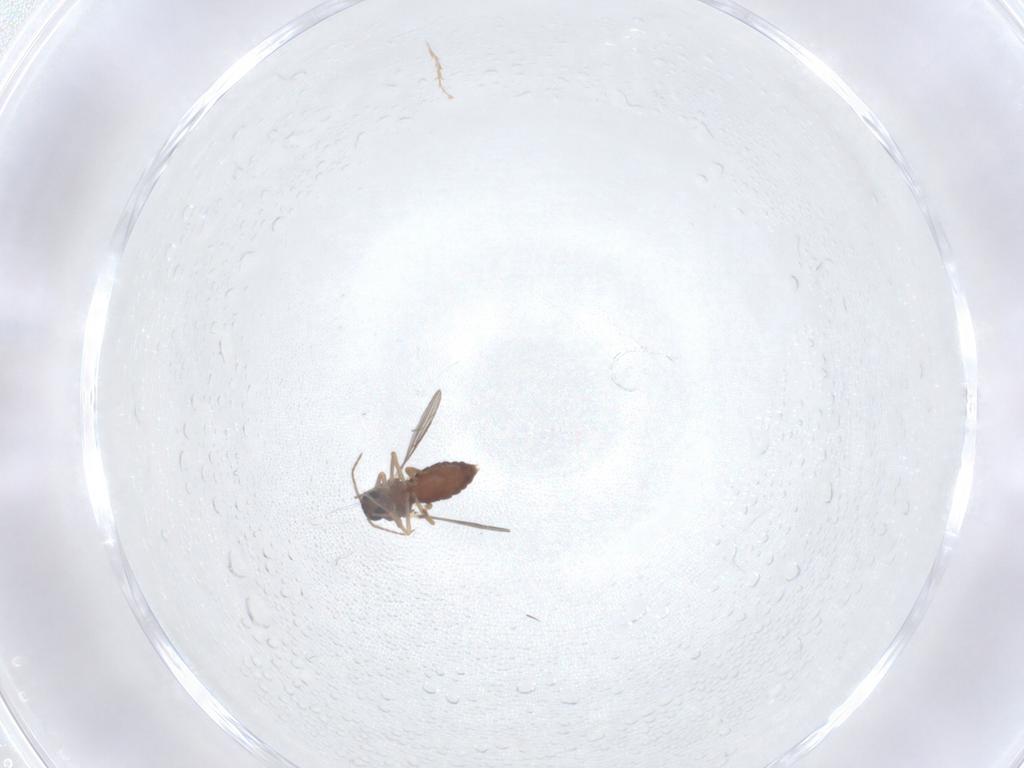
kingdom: Animalia
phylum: Arthropoda
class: Insecta
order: Diptera
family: Ceratopogonidae
